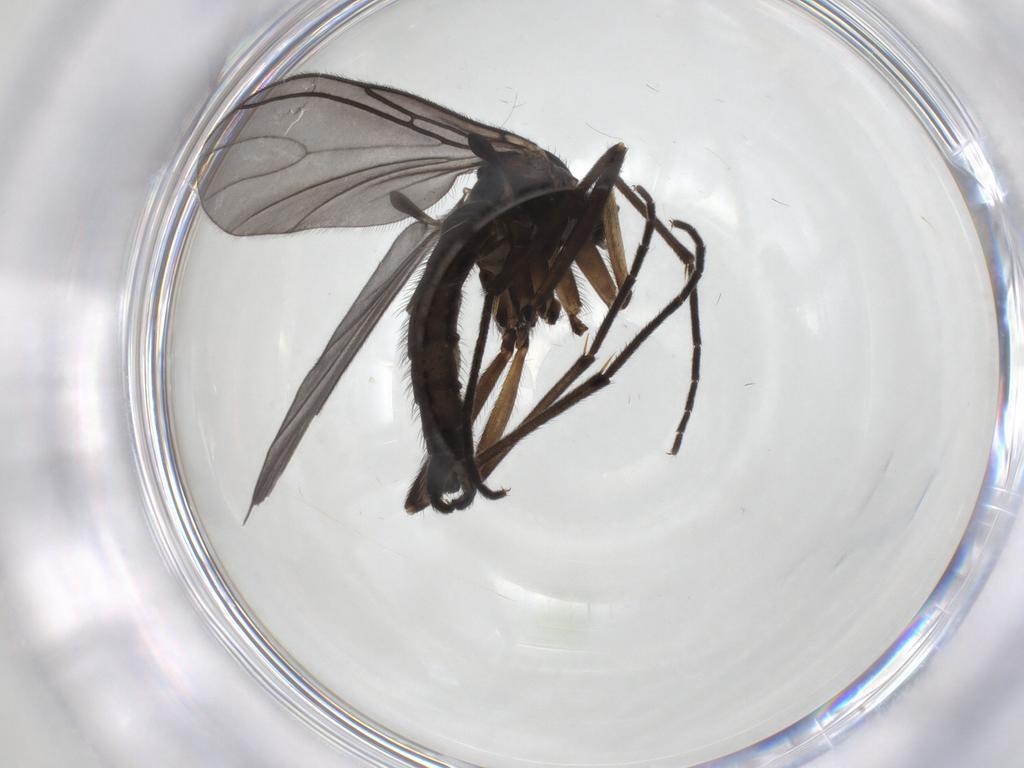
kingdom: Animalia
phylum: Arthropoda
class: Insecta
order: Diptera
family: Sciaridae
